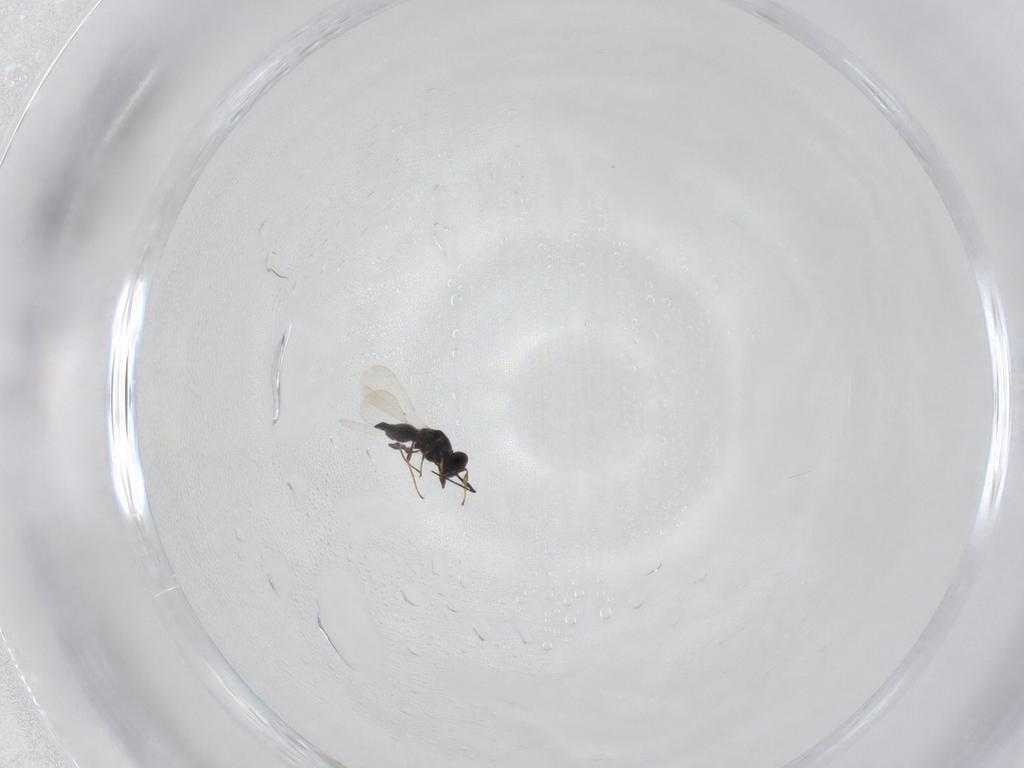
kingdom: Animalia
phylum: Arthropoda
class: Insecta
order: Hymenoptera
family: Platygastridae
